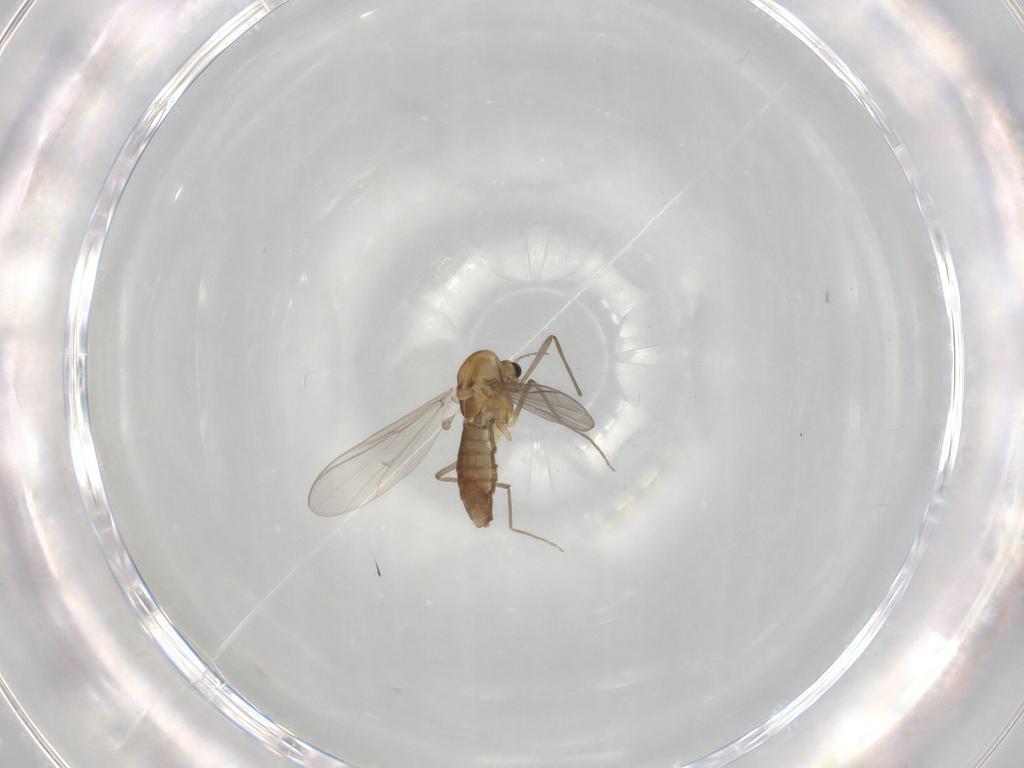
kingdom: Animalia
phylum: Arthropoda
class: Insecta
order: Diptera
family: Chironomidae
